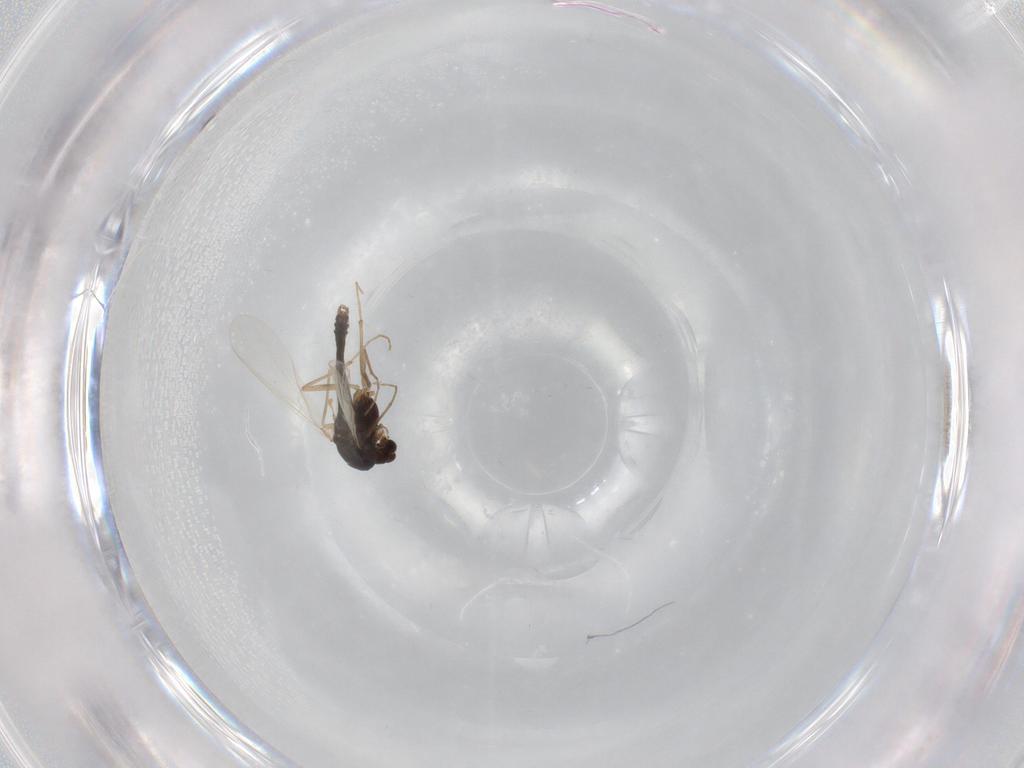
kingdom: Animalia
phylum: Arthropoda
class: Insecta
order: Diptera
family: Chironomidae
